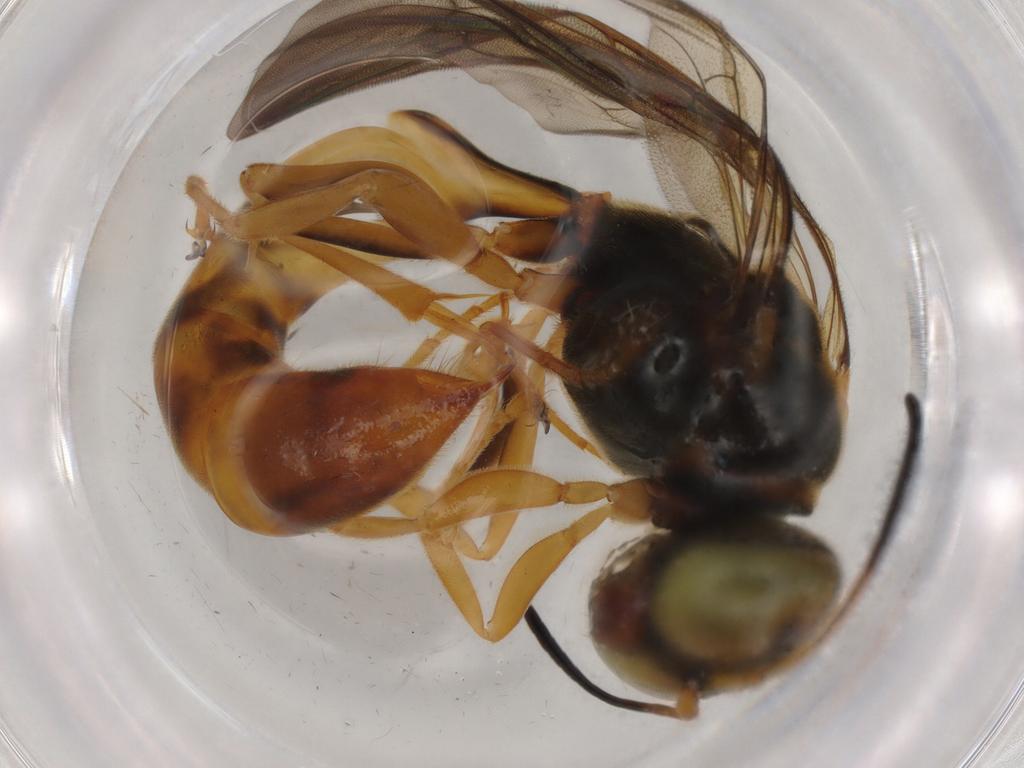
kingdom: Animalia
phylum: Arthropoda
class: Insecta
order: Hymenoptera
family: Crabronidae
